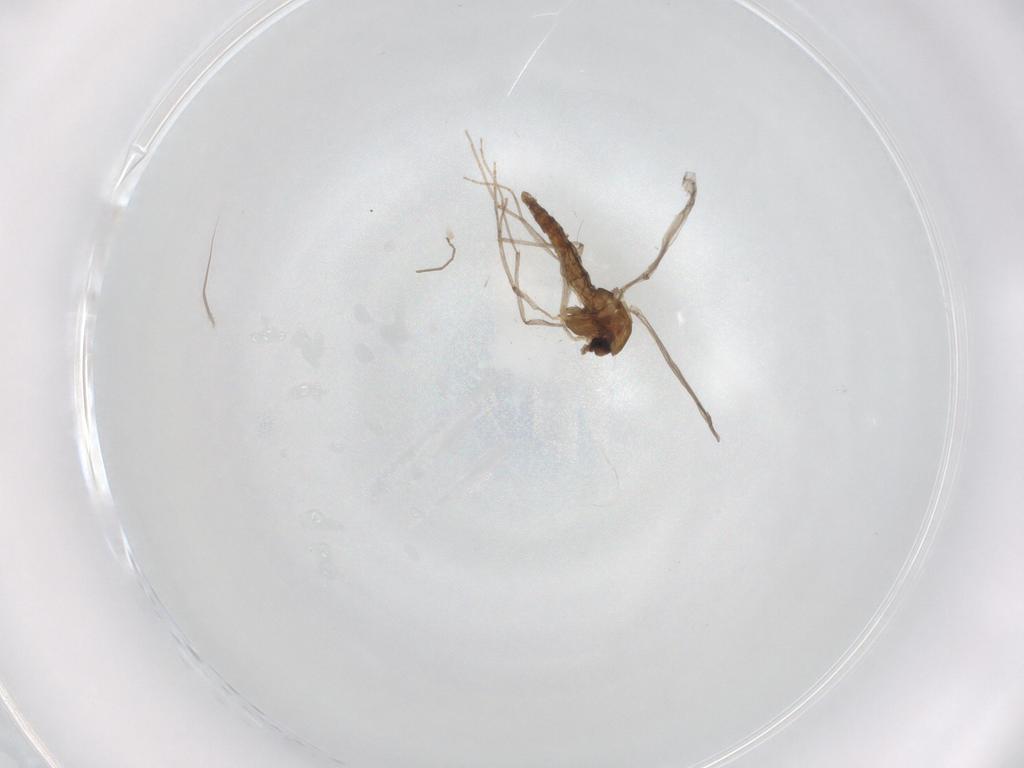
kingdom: Animalia
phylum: Arthropoda
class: Insecta
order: Diptera
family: Chironomidae
